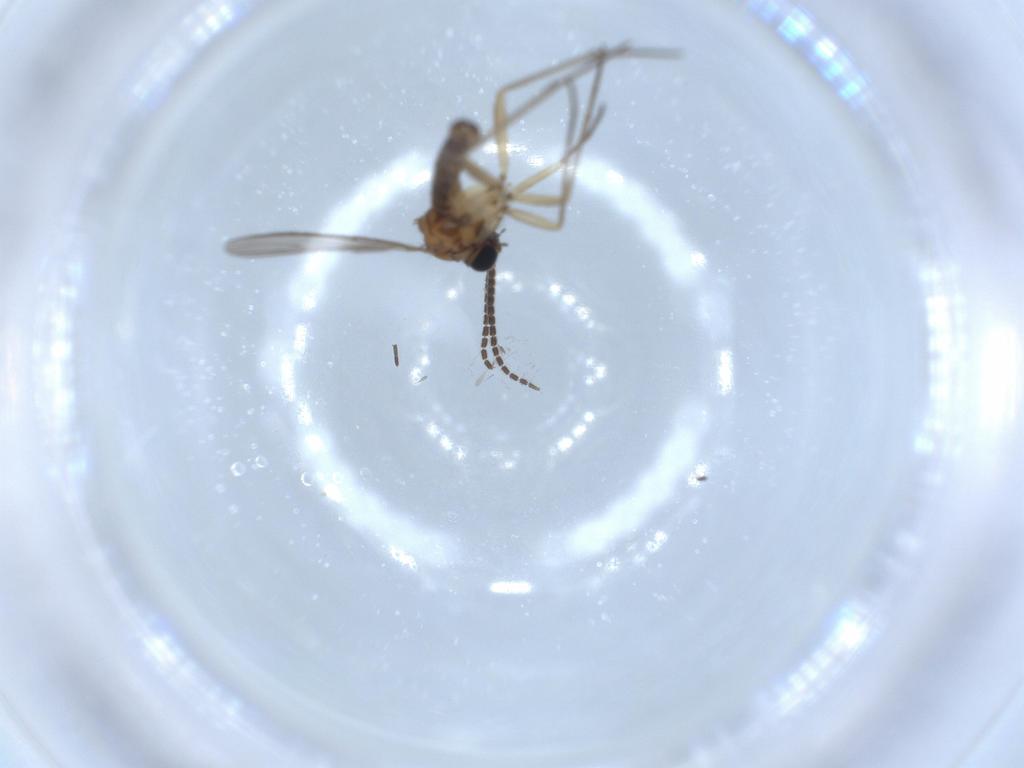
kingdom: Animalia
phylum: Arthropoda
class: Insecta
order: Diptera
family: Sciaridae
